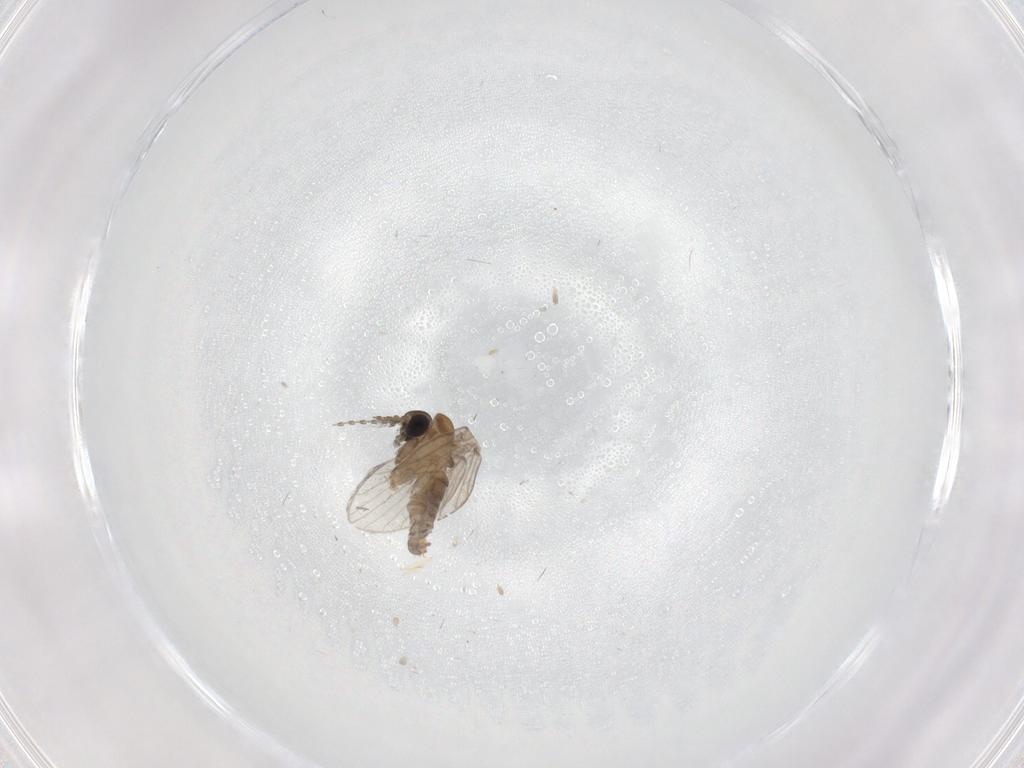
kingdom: Animalia
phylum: Arthropoda
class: Insecta
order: Diptera
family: Psychodidae
